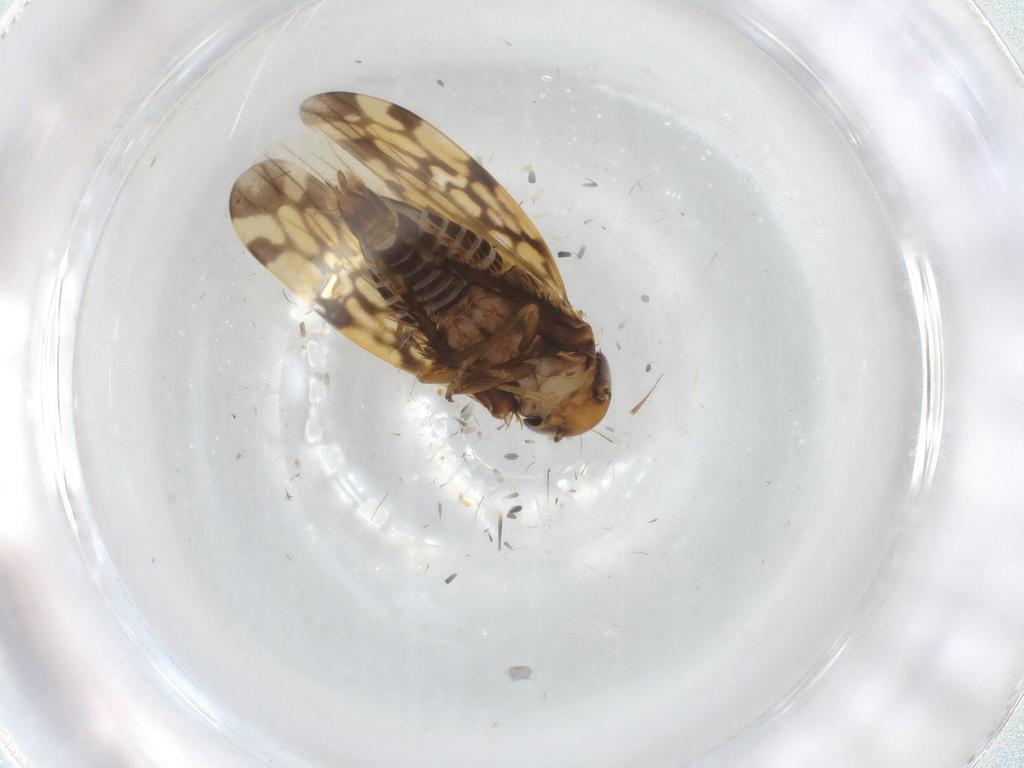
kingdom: Animalia
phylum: Arthropoda
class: Insecta
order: Hemiptera
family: Cicadellidae
